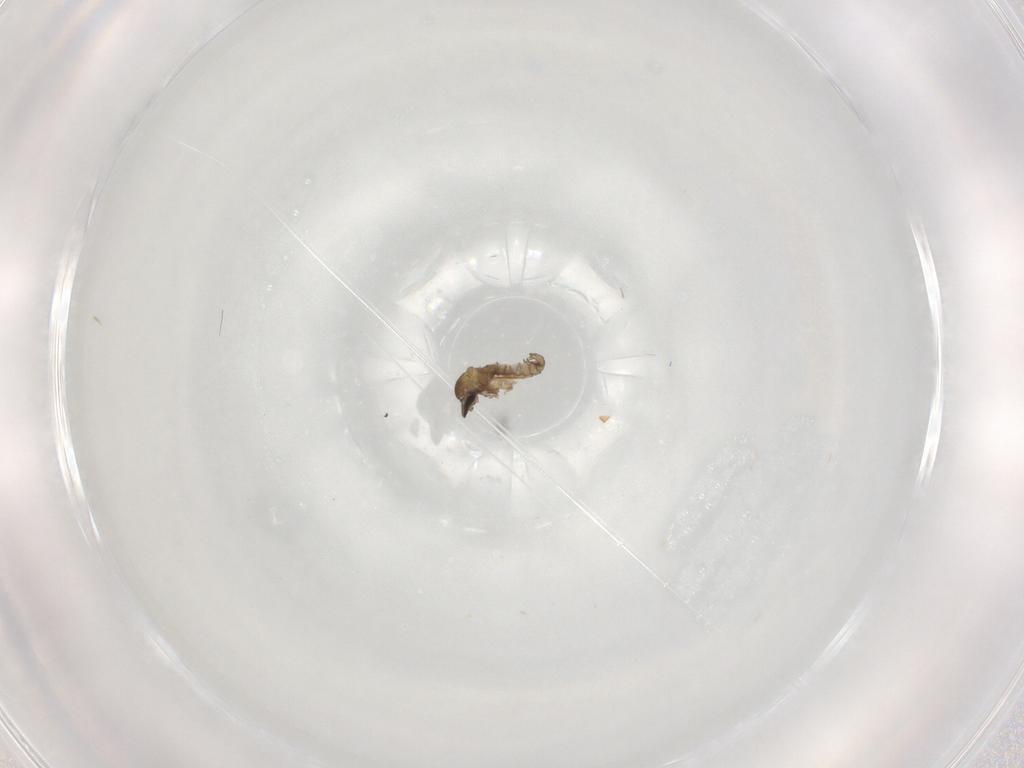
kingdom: Animalia
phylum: Arthropoda
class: Insecta
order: Diptera
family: Cecidomyiidae
